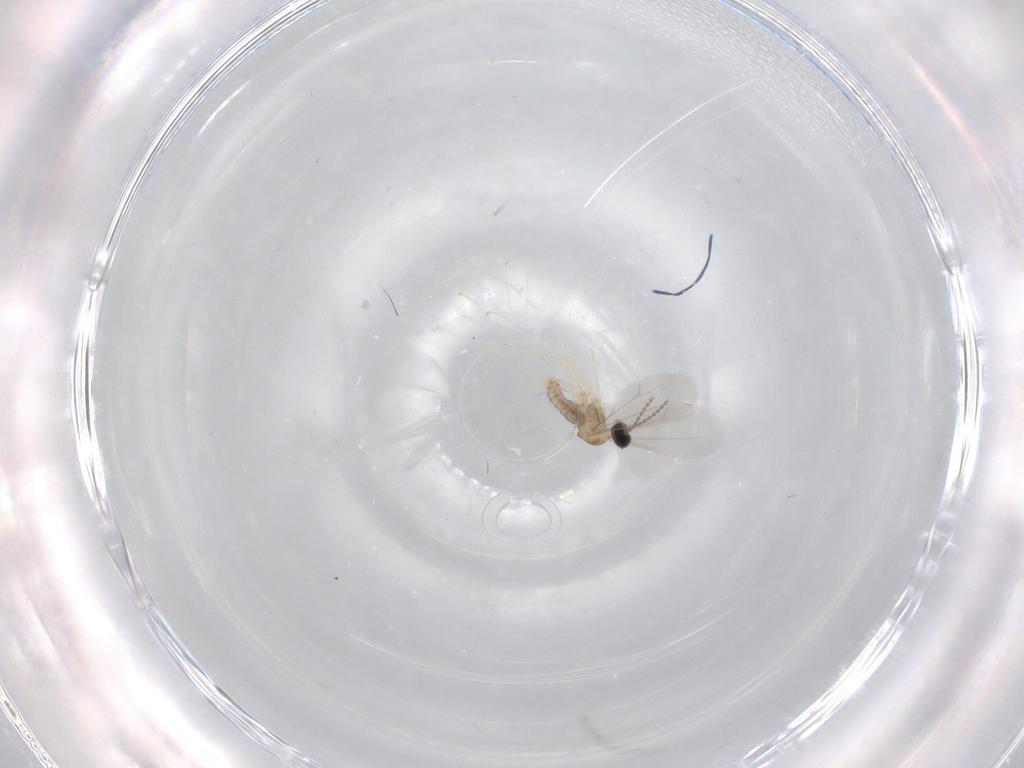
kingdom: Animalia
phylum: Arthropoda
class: Insecta
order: Diptera
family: Cecidomyiidae
